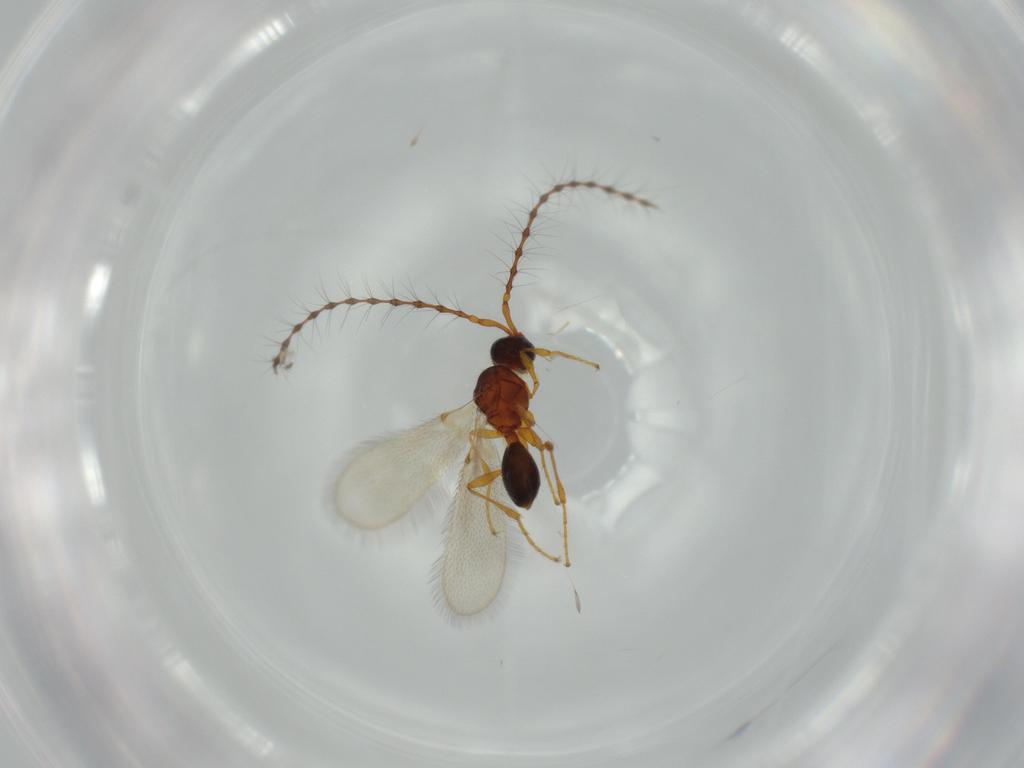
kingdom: Animalia
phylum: Arthropoda
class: Insecta
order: Hymenoptera
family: Diapriidae
